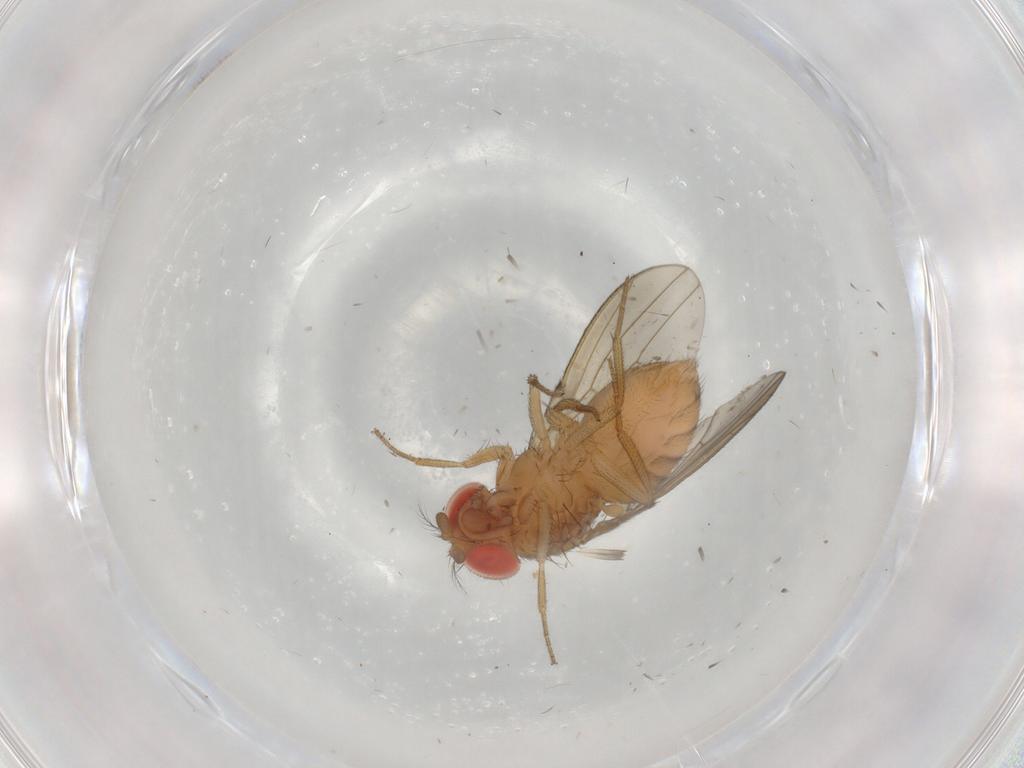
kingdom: Animalia
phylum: Arthropoda
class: Insecta
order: Diptera
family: Drosophilidae
